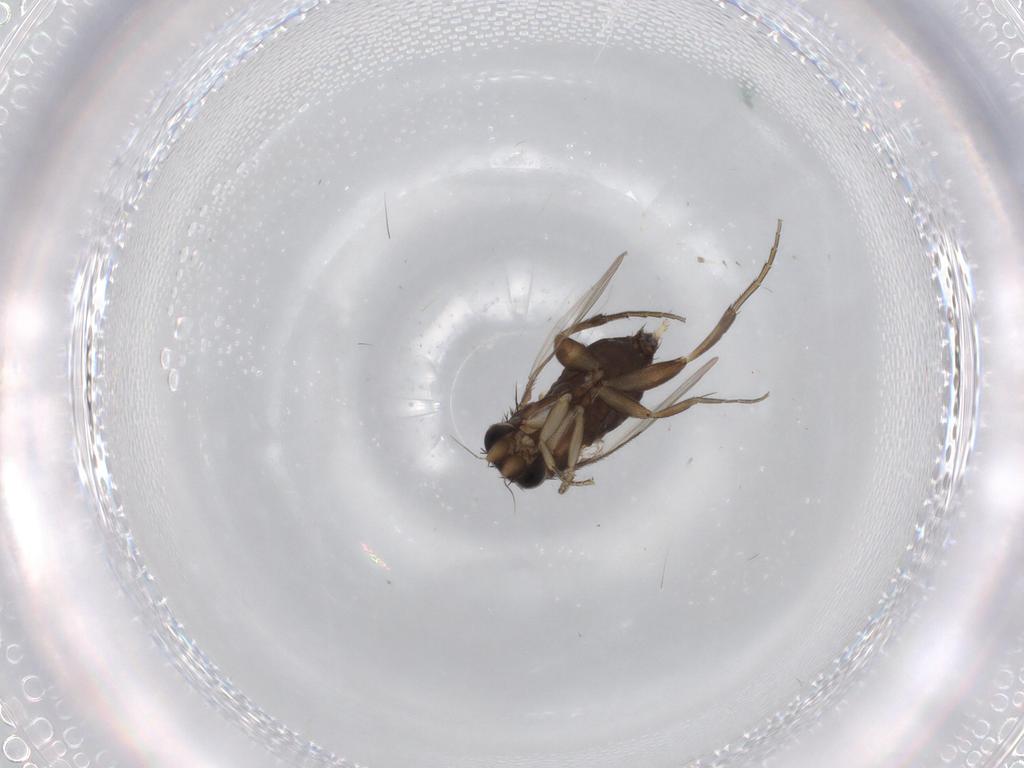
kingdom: Animalia
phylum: Arthropoda
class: Insecta
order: Diptera
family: Phoridae
